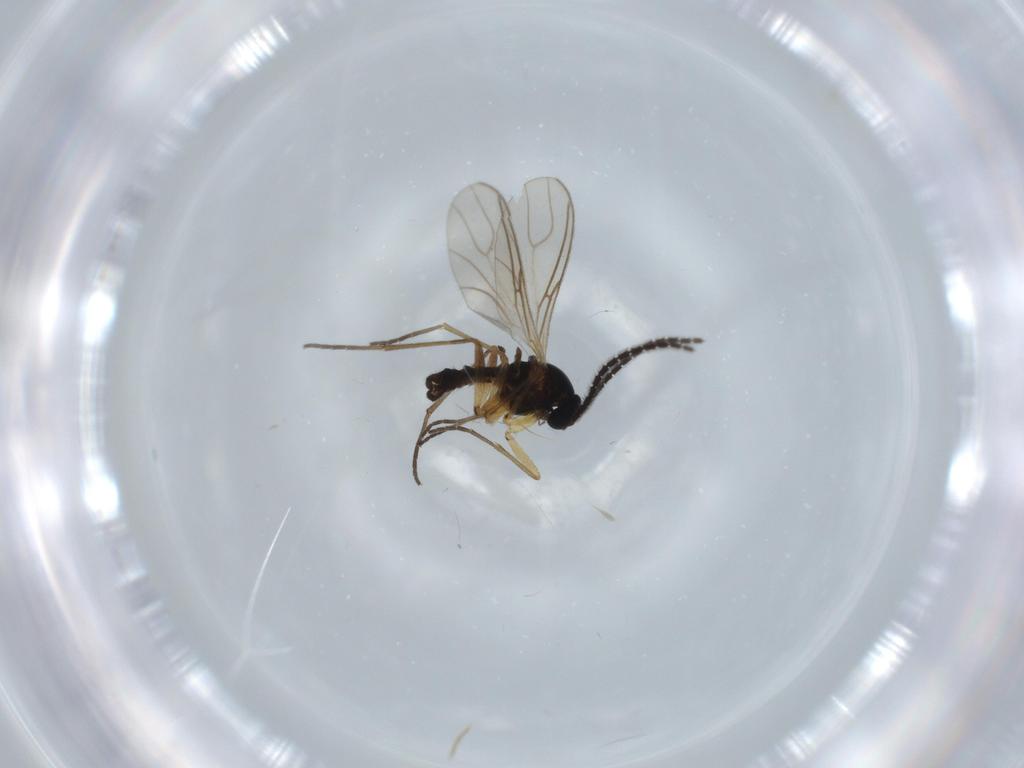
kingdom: Animalia
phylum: Arthropoda
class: Insecta
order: Diptera
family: Sciaridae
